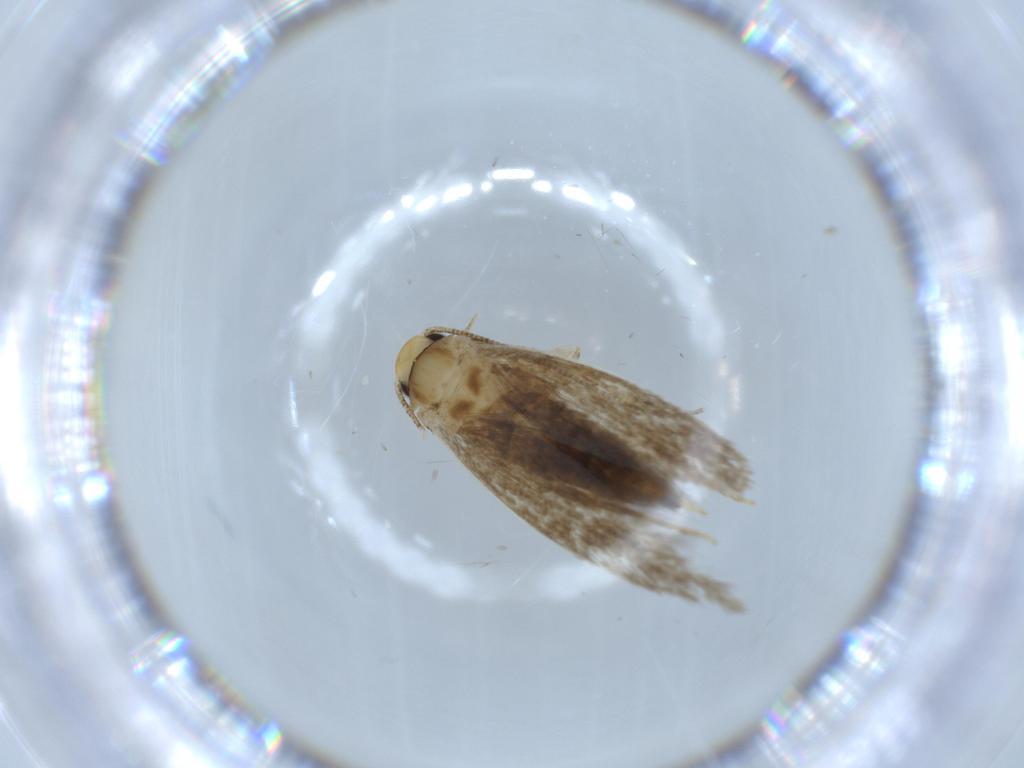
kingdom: Animalia
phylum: Arthropoda
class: Insecta
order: Lepidoptera
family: Tineidae
